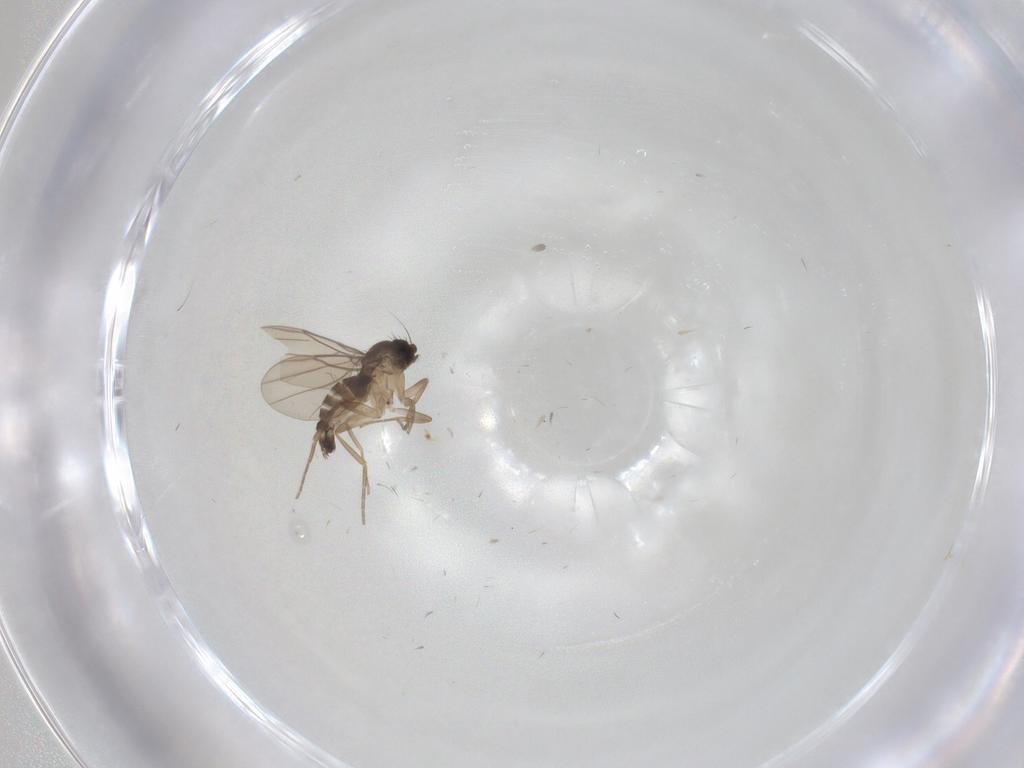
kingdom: Animalia
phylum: Arthropoda
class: Insecta
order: Diptera
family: Phoridae
